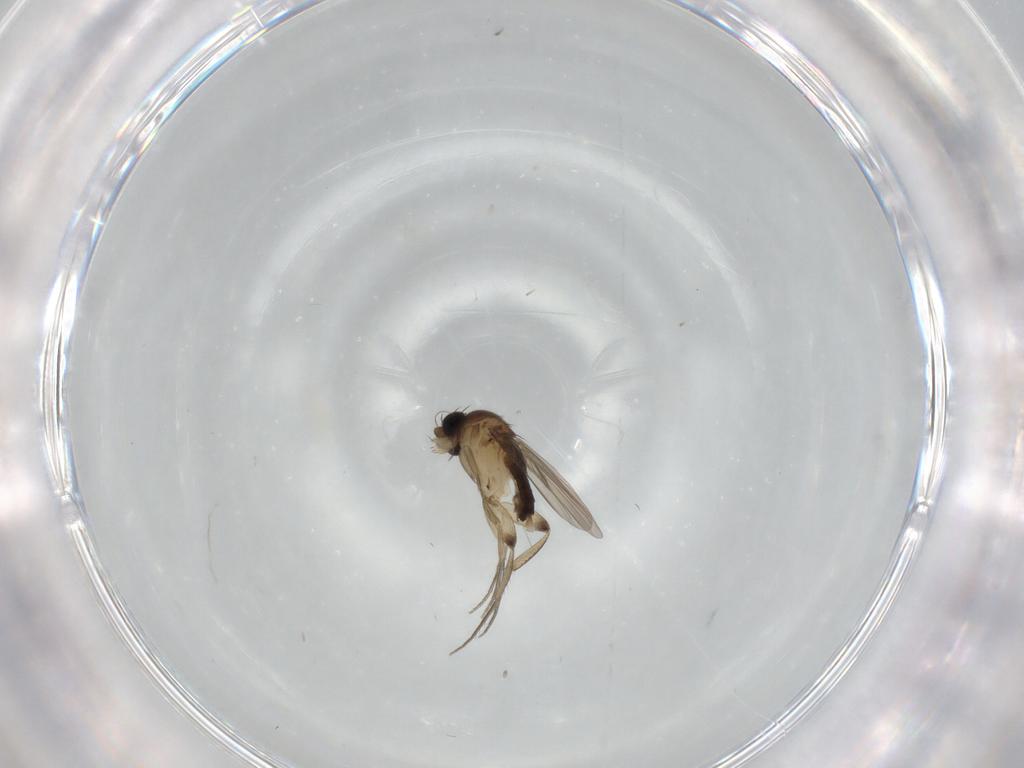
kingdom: Animalia
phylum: Arthropoda
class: Insecta
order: Diptera
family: Phoridae
